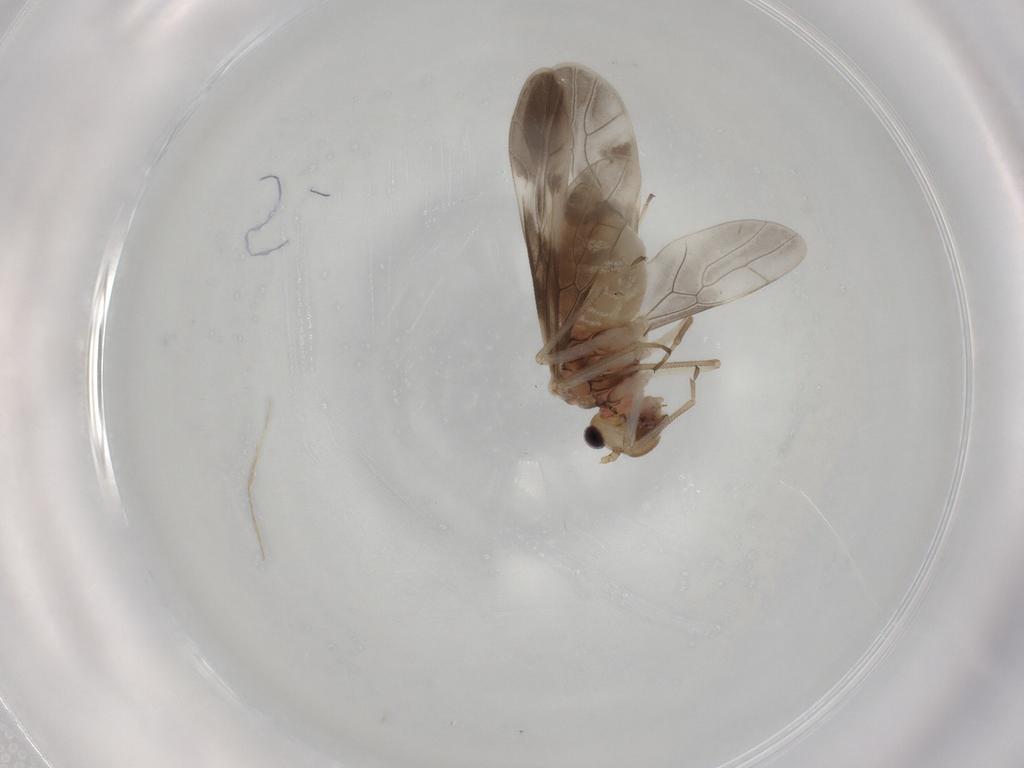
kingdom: Animalia
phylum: Arthropoda
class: Insecta
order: Psocodea
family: Caeciliusidae
